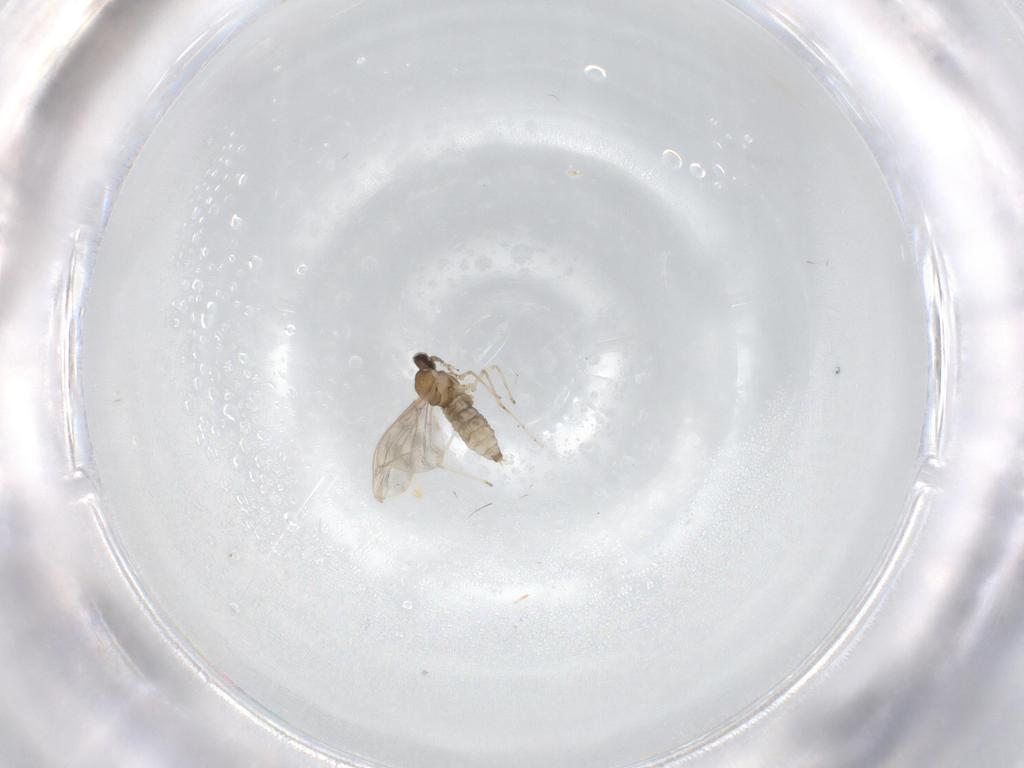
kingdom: Animalia
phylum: Arthropoda
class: Insecta
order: Diptera
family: Cecidomyiidae
